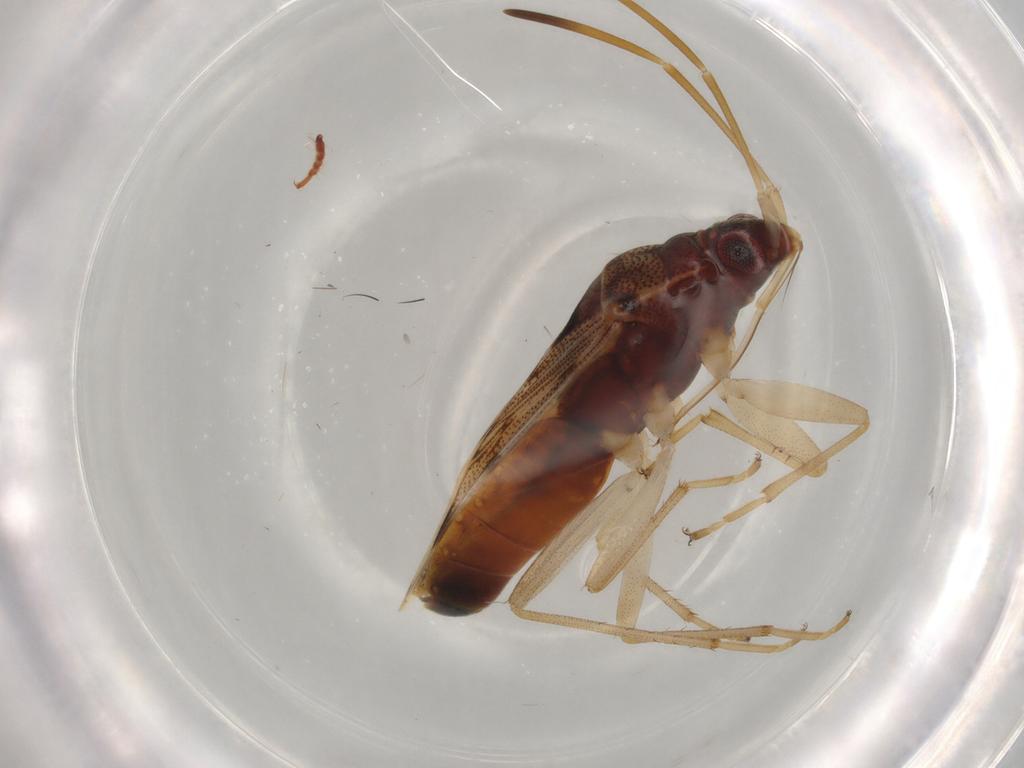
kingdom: Animalia
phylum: Arthropoda
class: Insecta
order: Hemiptera
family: Rhyparochromidae
